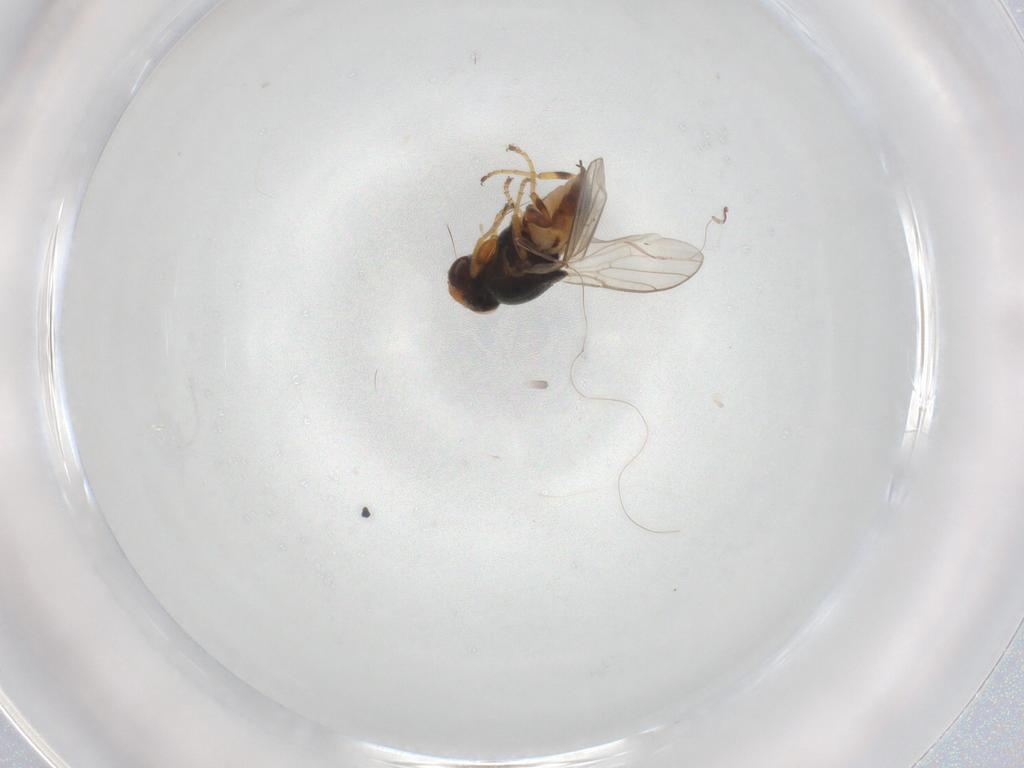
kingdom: Animalia
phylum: Arthropoda
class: Insecta
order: Diptera
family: Chloropidae
